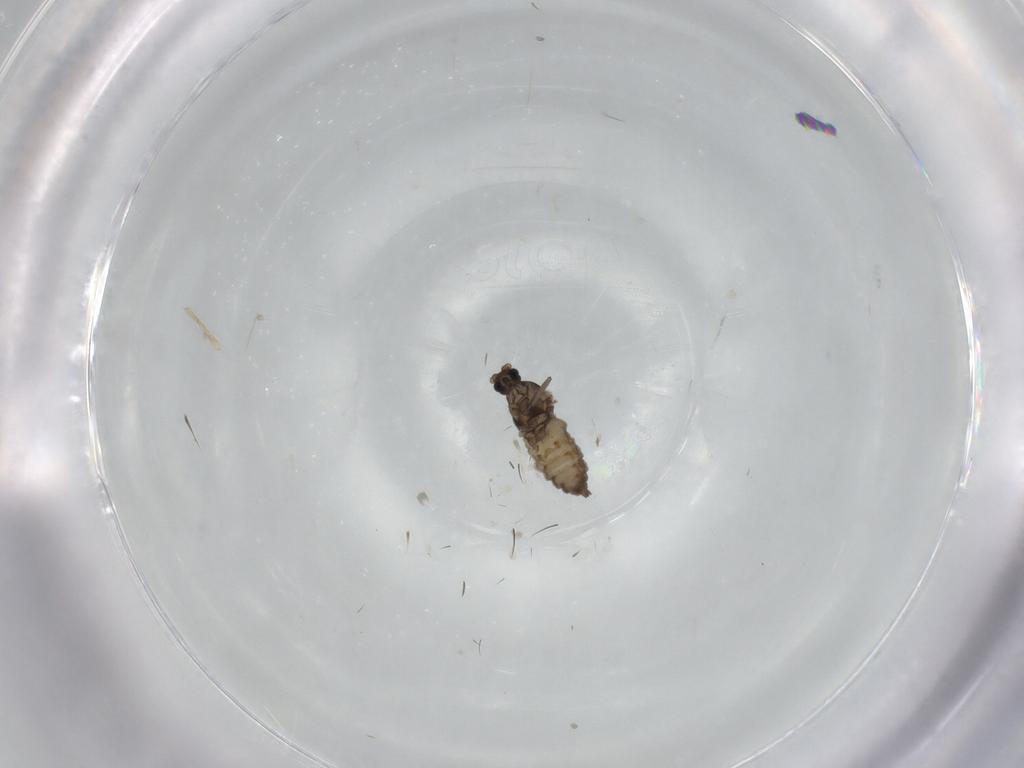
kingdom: Animalia
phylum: Arthropoda
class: Insecta
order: Diptera
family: Cecidomyiidae
